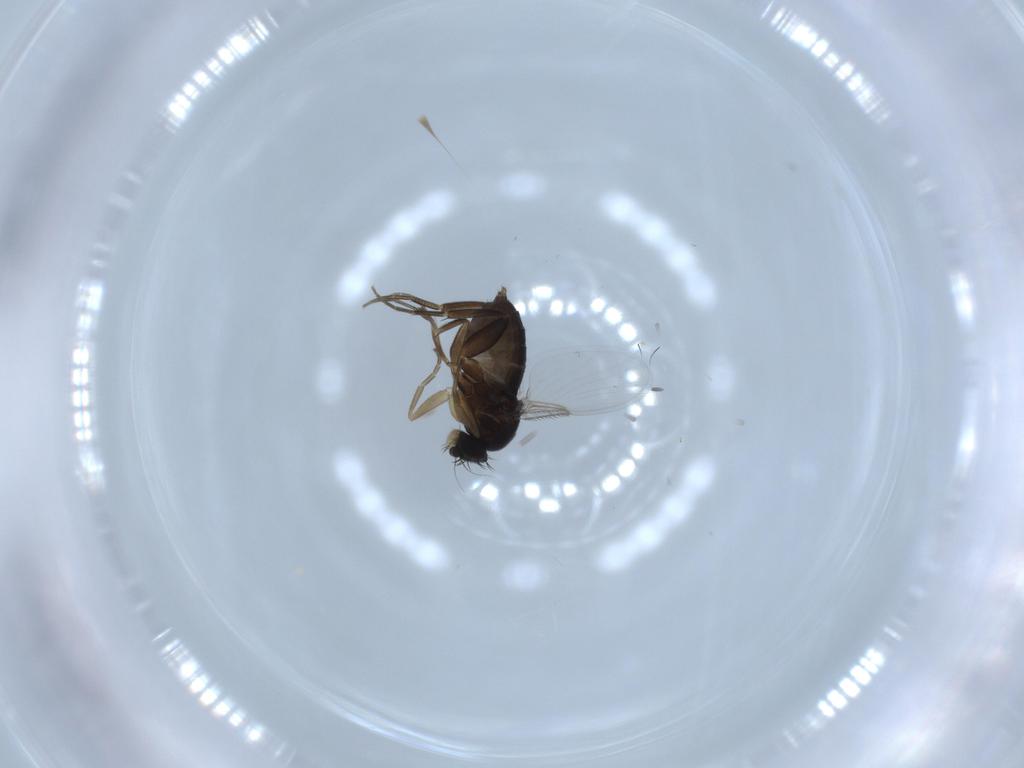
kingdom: Animalia
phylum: Arthropoda
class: Insecta
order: Diptera
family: Phoridae
